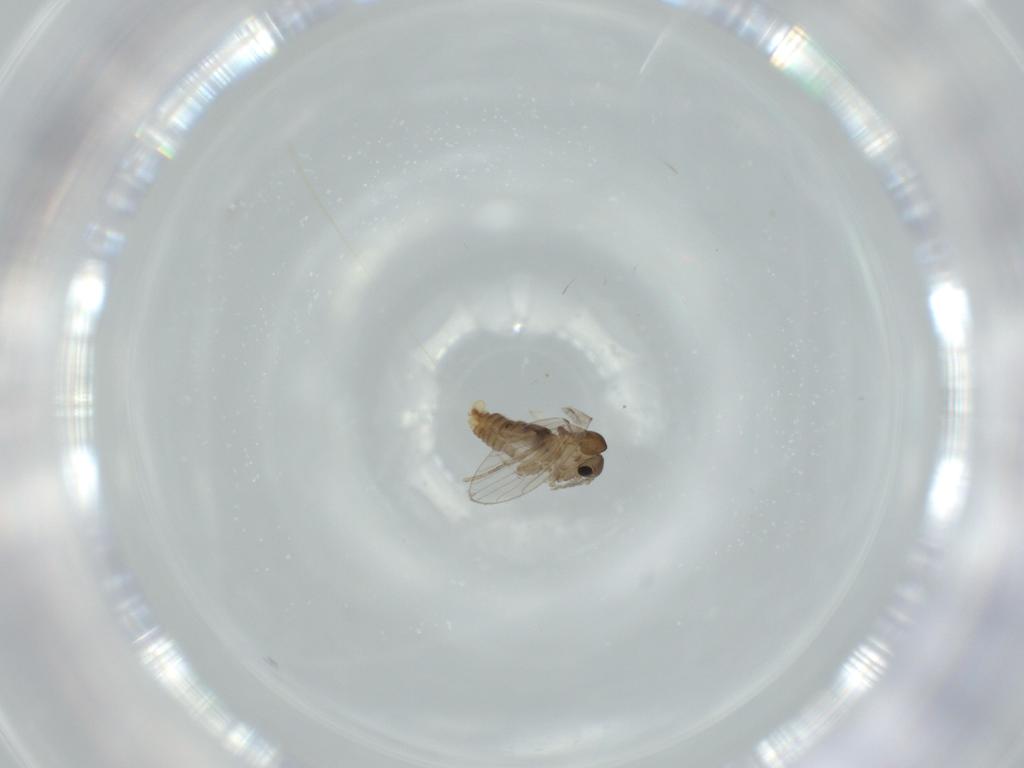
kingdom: Animalia
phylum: Arthropoda
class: Insecta
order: Diptera
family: Psychodidae
